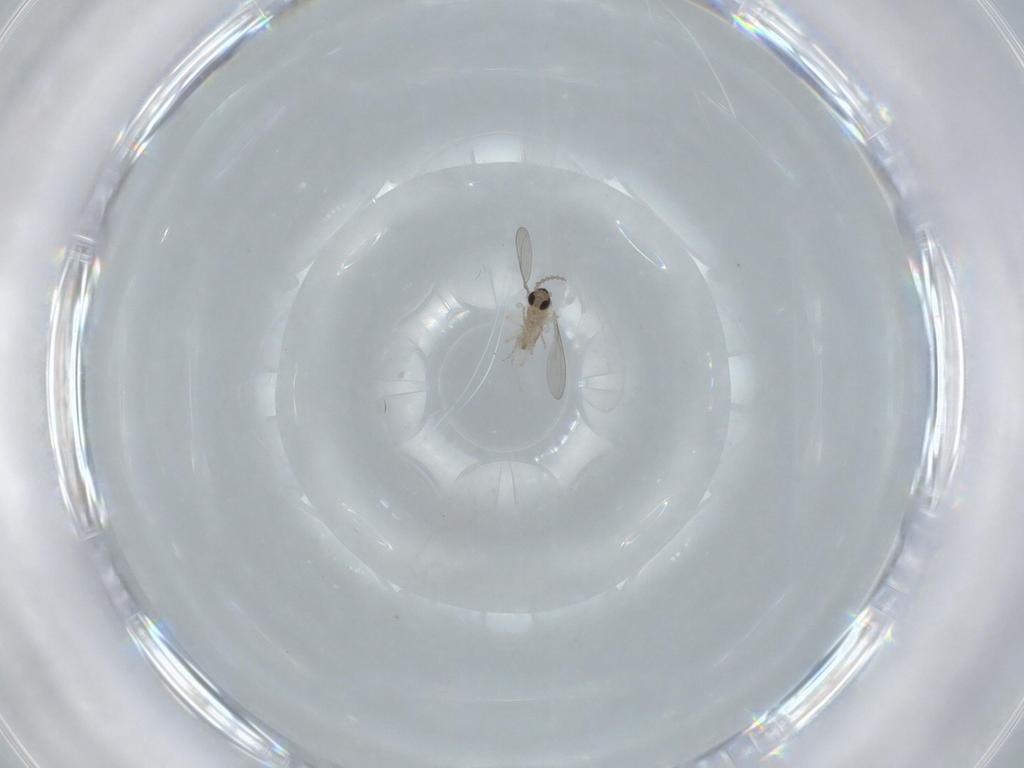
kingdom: Animalia
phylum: Arthropoda
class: Insecta
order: Diptera
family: Cecidomyiidae
